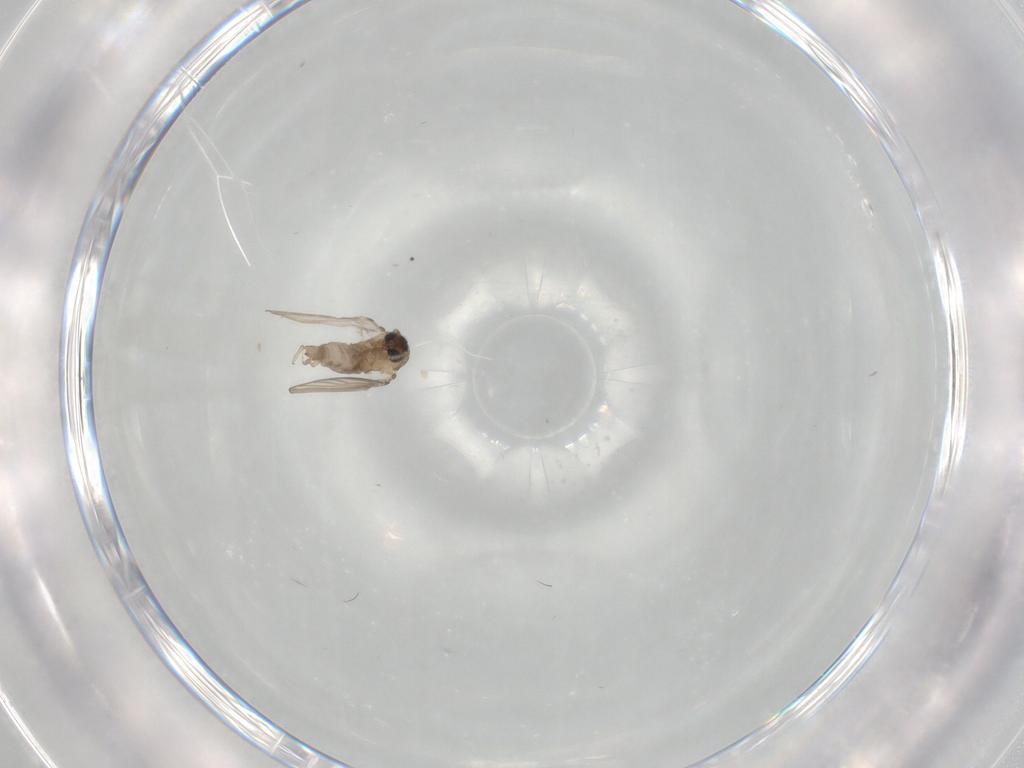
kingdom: Animalia
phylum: Arthropoda
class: Insecta
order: Diptera
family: Psychodidae
